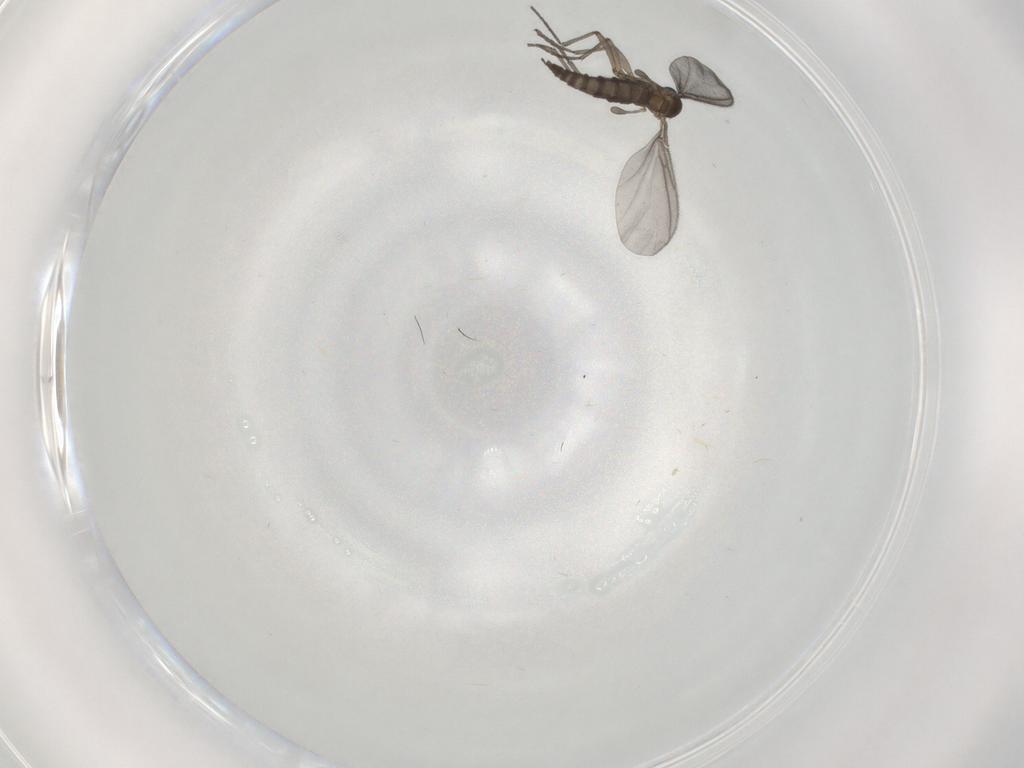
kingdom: Animalia
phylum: Arthropoda
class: Insecta
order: Diptera
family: Sciaridae
